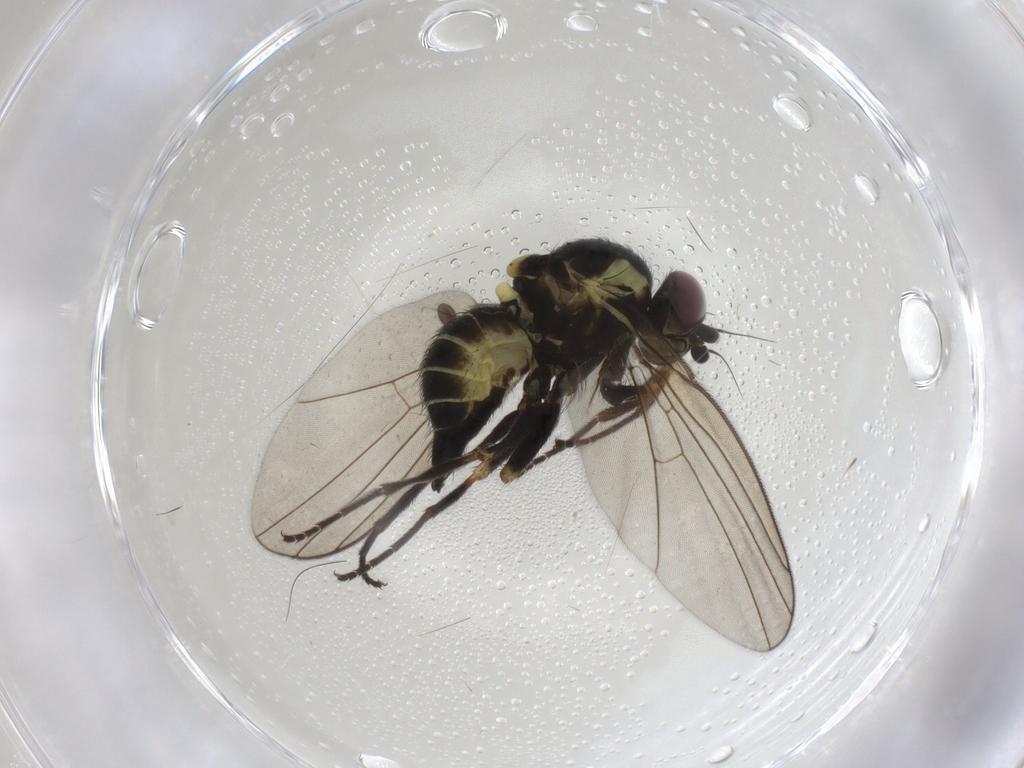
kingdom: Animalia
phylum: Arthropoda
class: Insecta
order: Diptera
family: Agromyzidae
